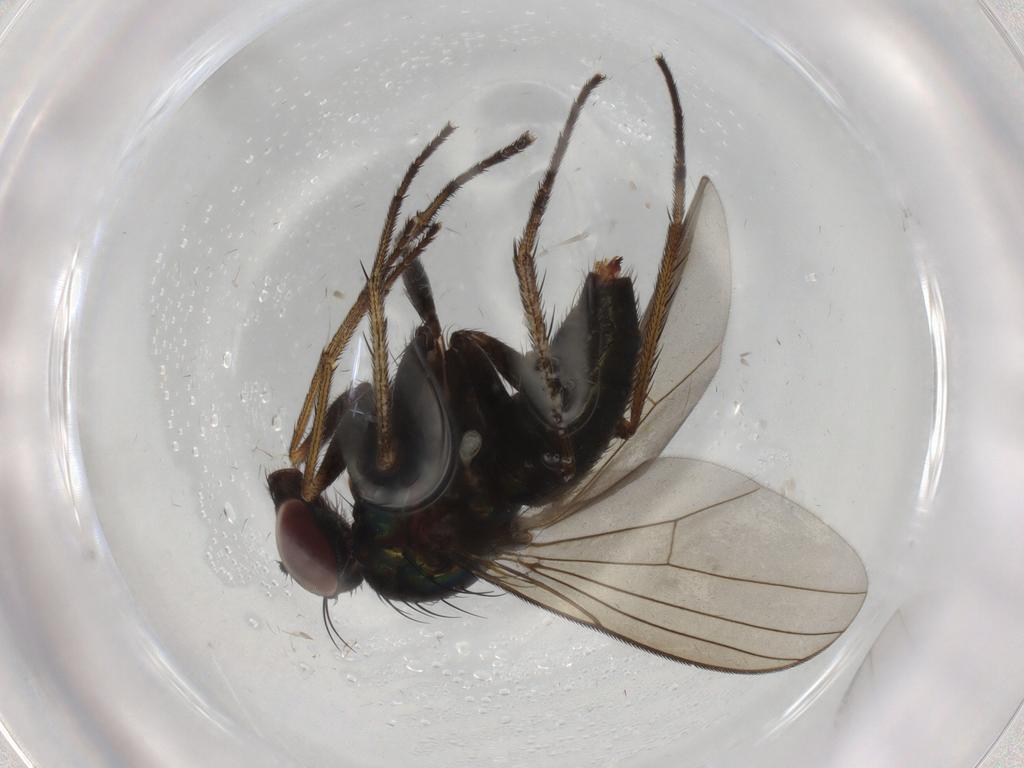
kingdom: Animalia
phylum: Arthropoda
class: Insecta
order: Diptera
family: Dolichopodidae
